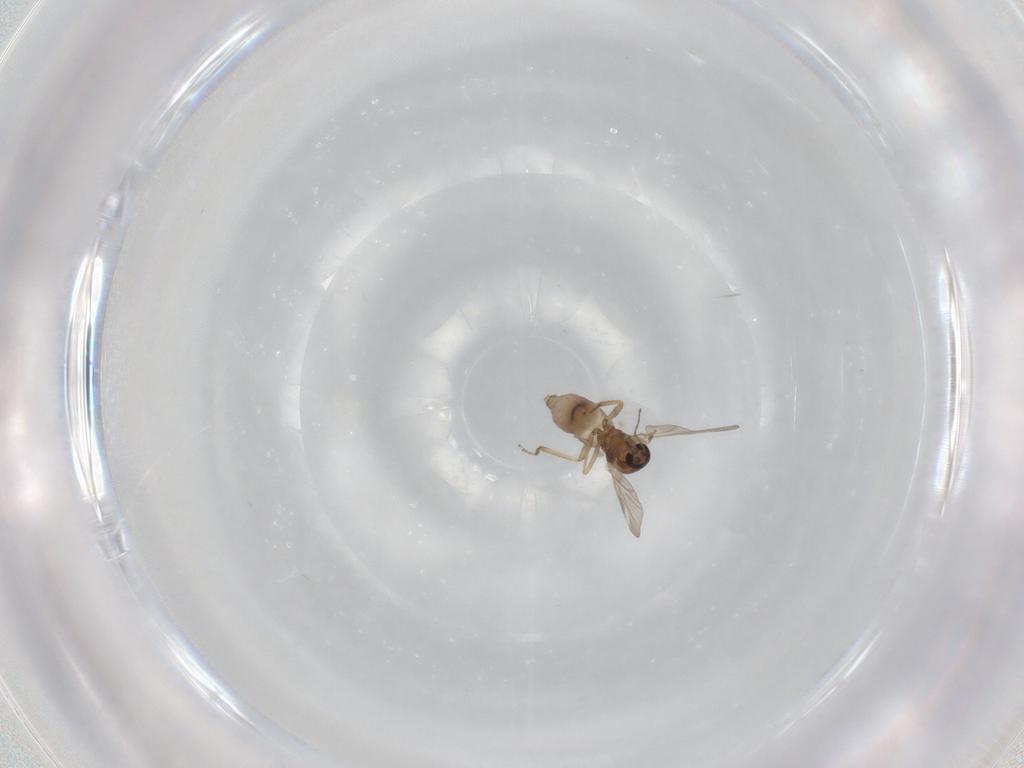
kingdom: Animalia
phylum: Arthropoda
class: Insecta
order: Diptera
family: Ceratopogonidae
